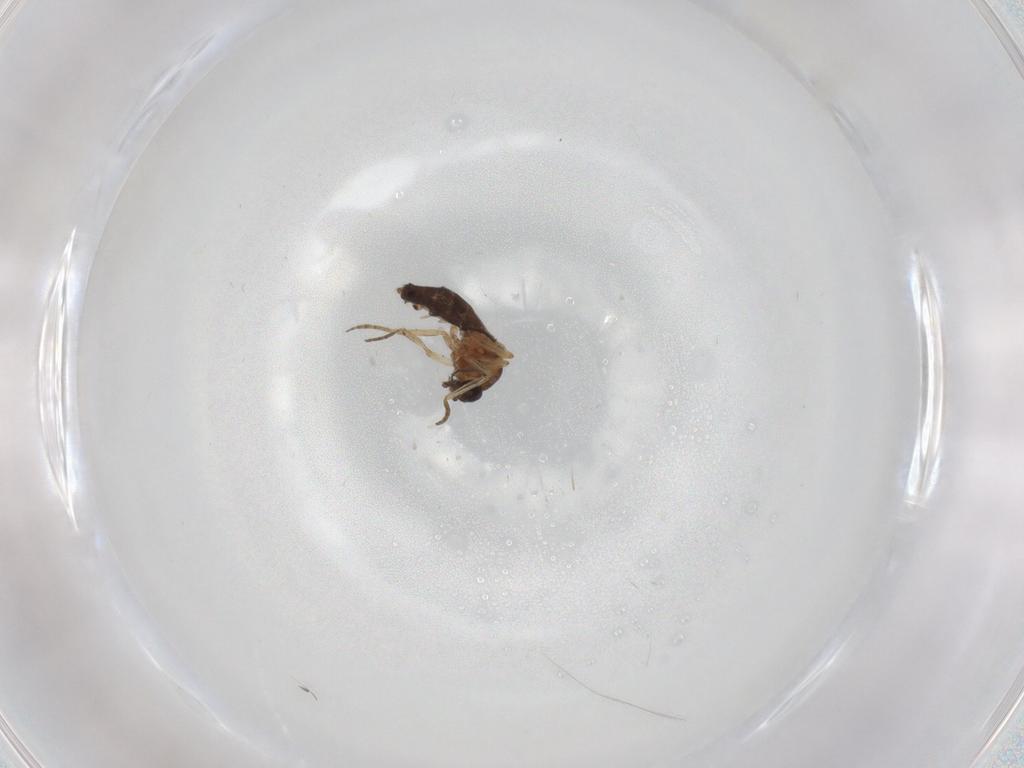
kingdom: Animalia
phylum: Arthropoda
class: Insecta
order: Diptera
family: Ceratopogonidae
